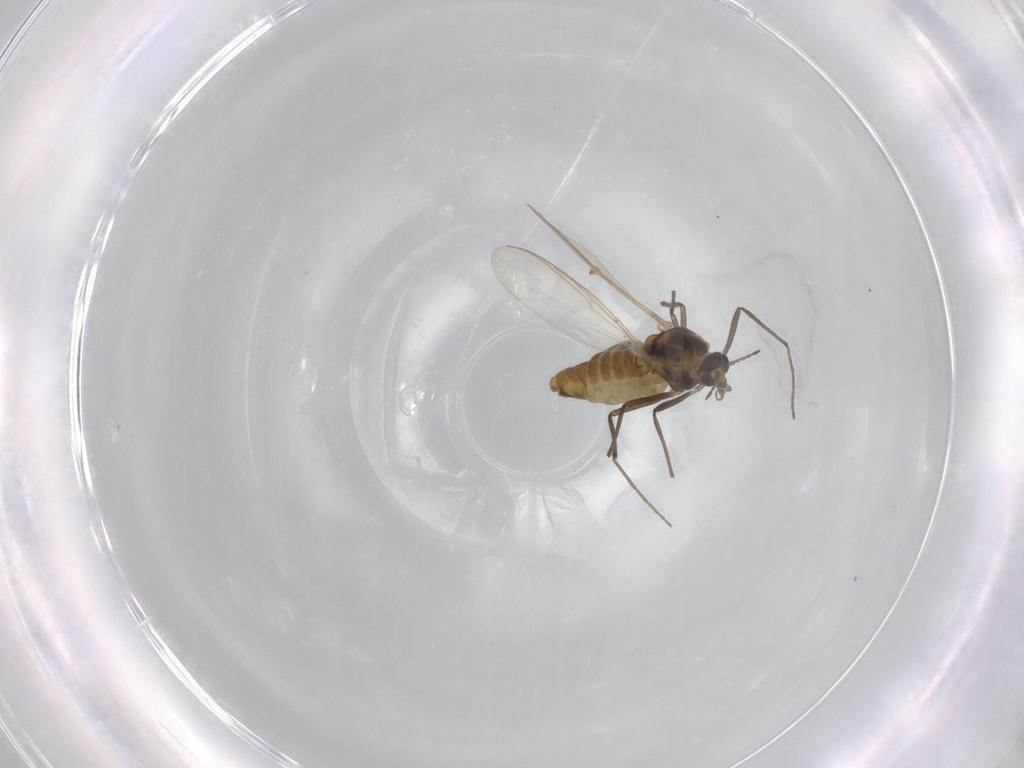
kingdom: Animalia
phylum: Arthropoda
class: Insecta
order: Diptera
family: Chironomidae
